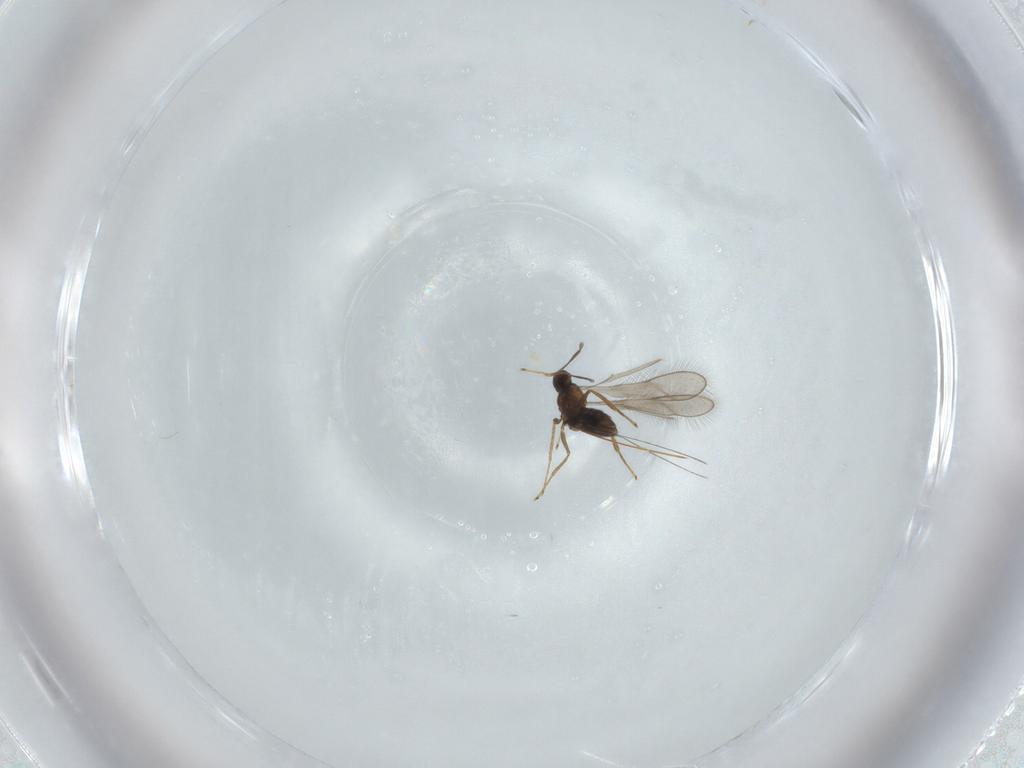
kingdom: Animalia
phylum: Arthropoda
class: Insecta
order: Hymenoptera
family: Mymaridae
